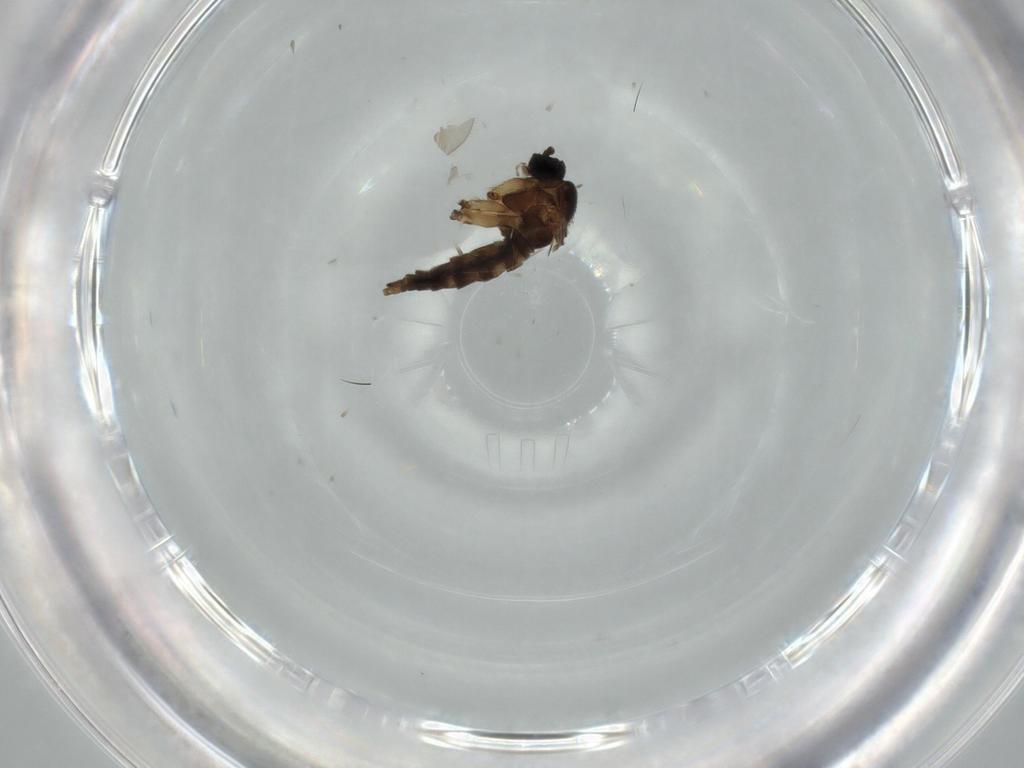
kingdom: Animalia
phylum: Arthropoda
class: Insecta
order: Diptera
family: Sciaridae
